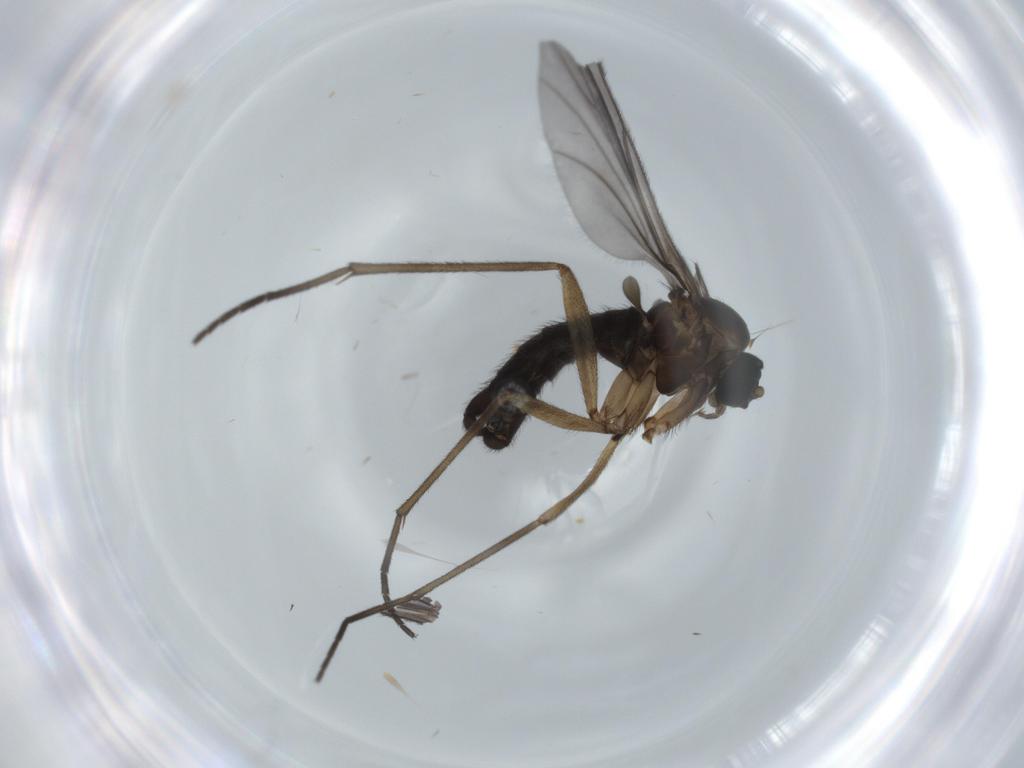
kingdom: Animalia
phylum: Arthropoda
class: Insecta
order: Diptera
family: Sciaridae
